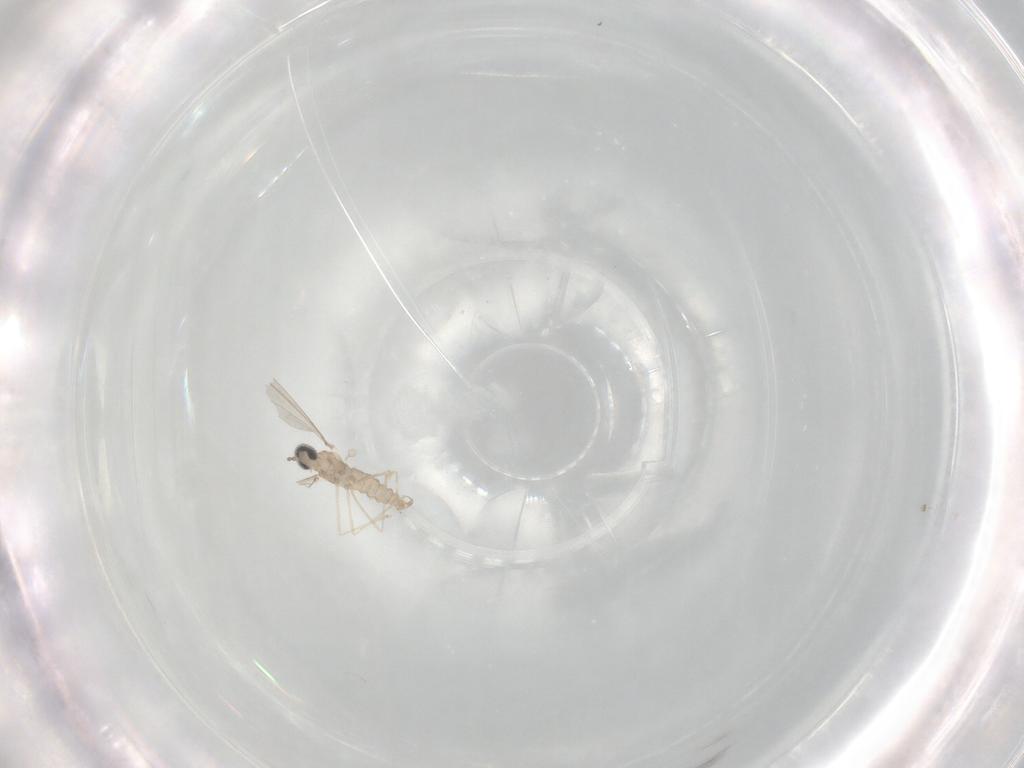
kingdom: Animalia
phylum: Arthropoda
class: Insecta
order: Diptera
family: Cecidomyiidae
